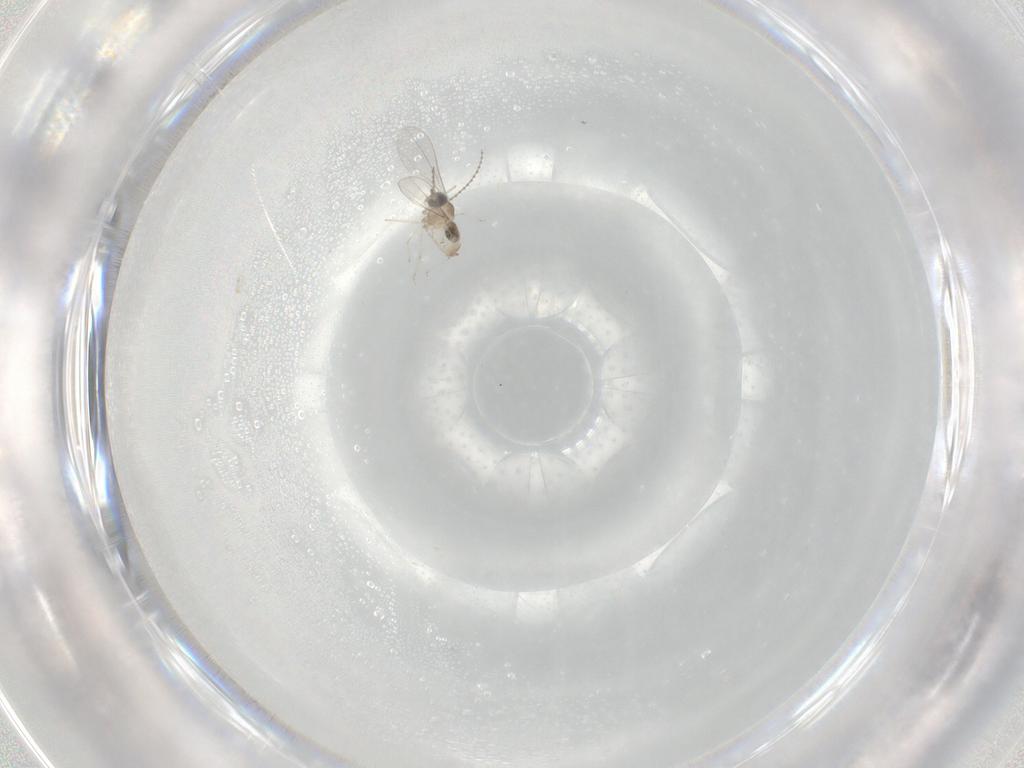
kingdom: Animalia
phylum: Arthropoda
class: Insecta
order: Diptera
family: Cecidomyiidae
